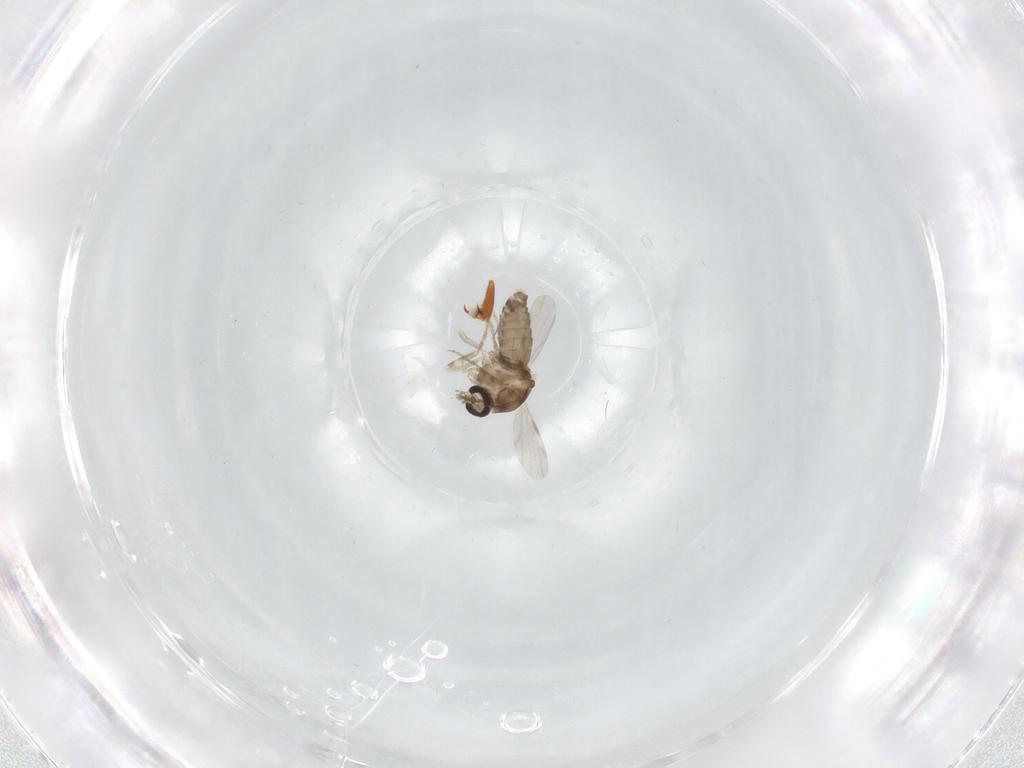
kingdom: Animalia
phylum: Arthropoda
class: Insecta
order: Diptera
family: Ceratopogonidae
